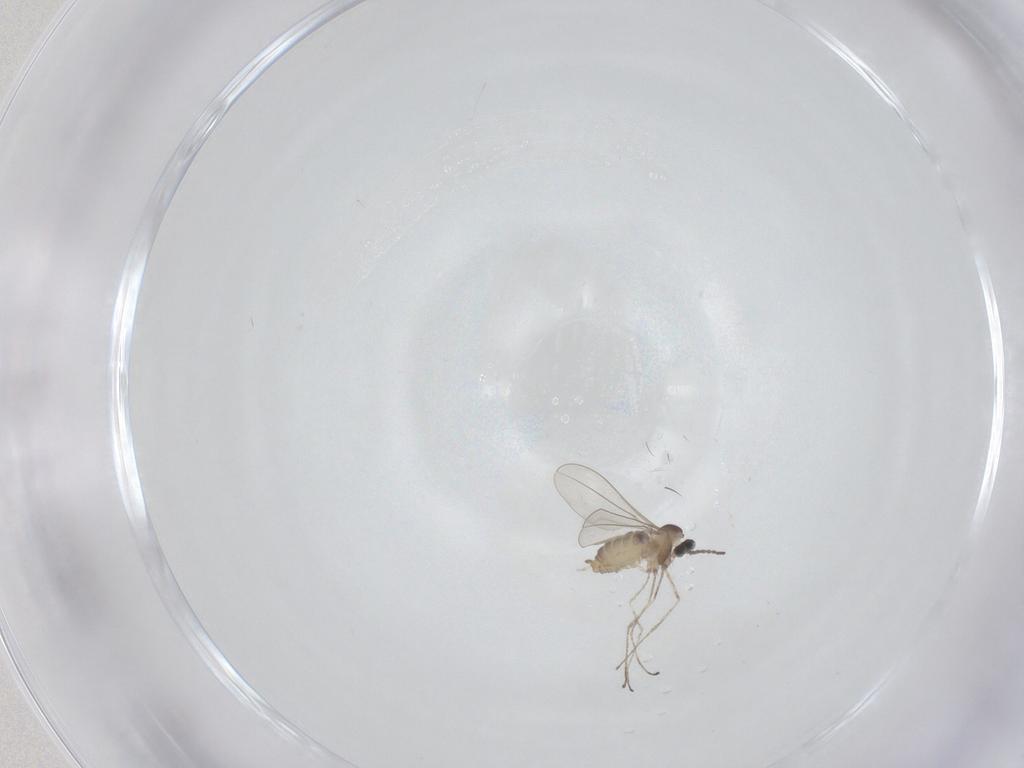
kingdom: Animalia
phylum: Arthropoda
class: Insecta
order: Diptera
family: Cecidomyiidae
